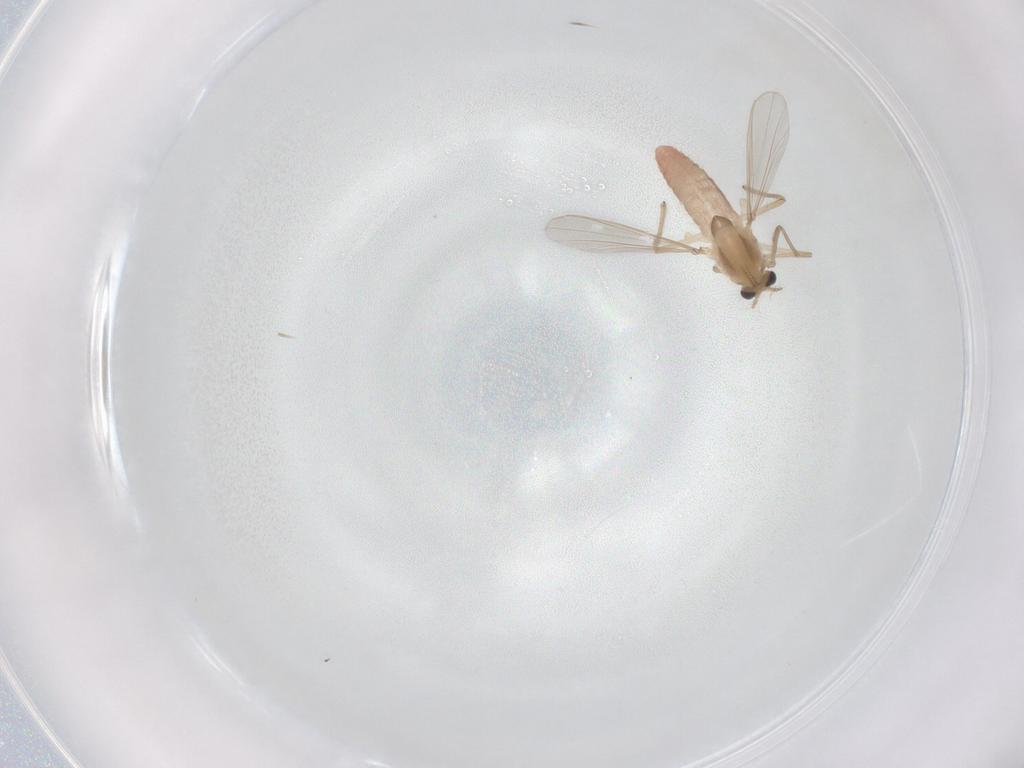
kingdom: Animalia
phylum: Arthropoda
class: Insecta
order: Diptera
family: Chironomidae
